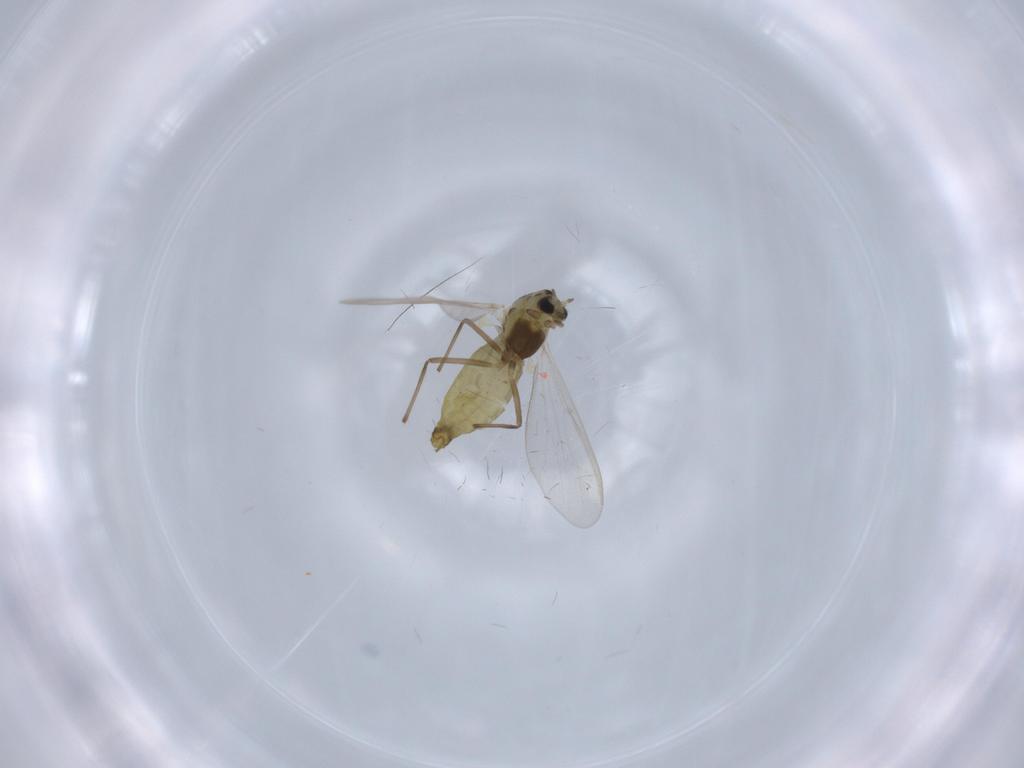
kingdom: Animalia
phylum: Arthropoda
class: Insecta
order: Diptera
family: Chironomidae
